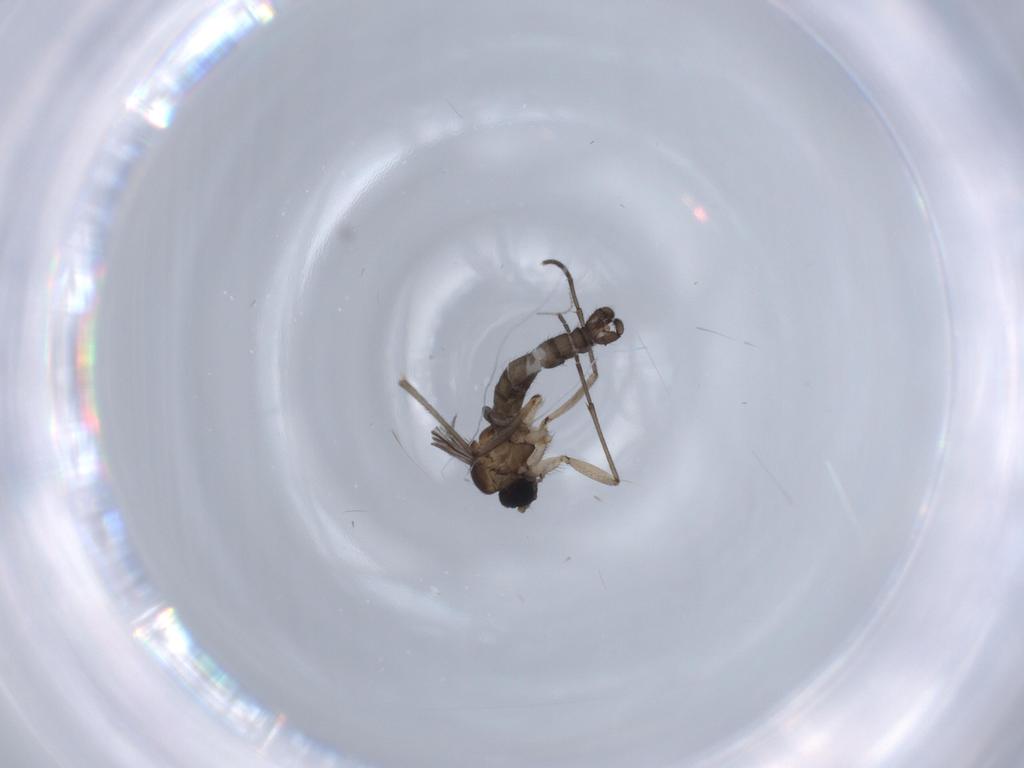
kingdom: Animalia
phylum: Arthropoda
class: Insecta
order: Diptera
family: Sciaridae
